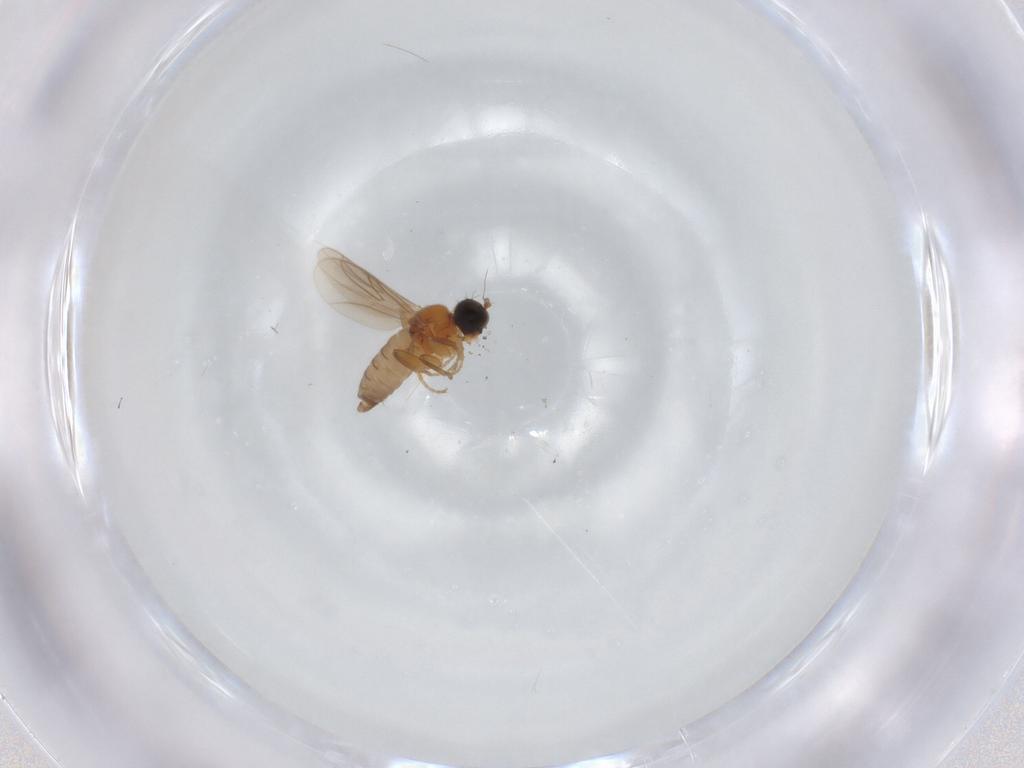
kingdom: Animalia
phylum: Arthropoda
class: Insecta
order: Diptera
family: Hybotidae
